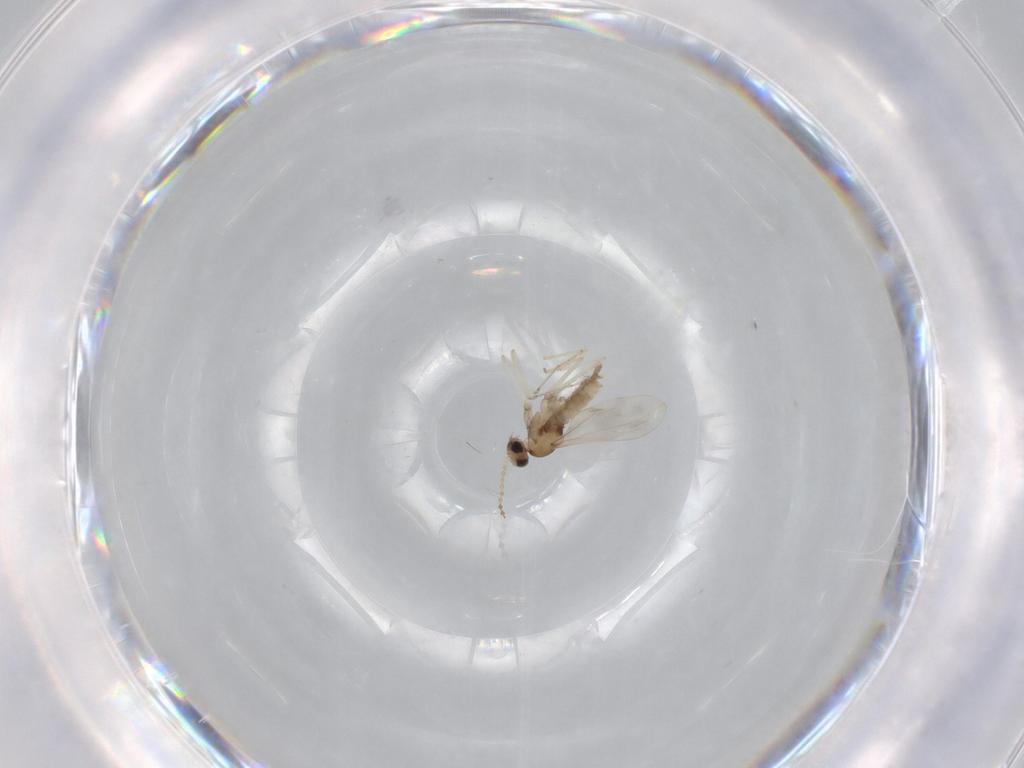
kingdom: Animalia
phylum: Arthropoda
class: Insecta
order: Diptera
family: Cecidomyiidae
